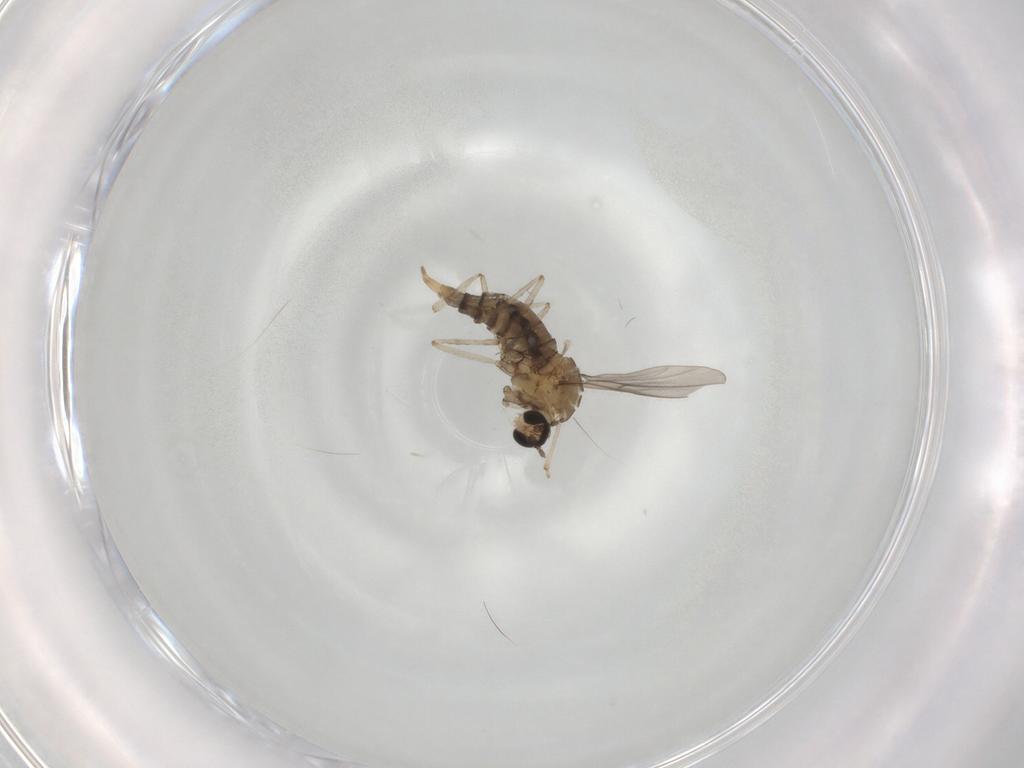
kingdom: Animalia
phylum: Arthropoda
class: Insecta
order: Diptera
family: Cecidomyiidae
